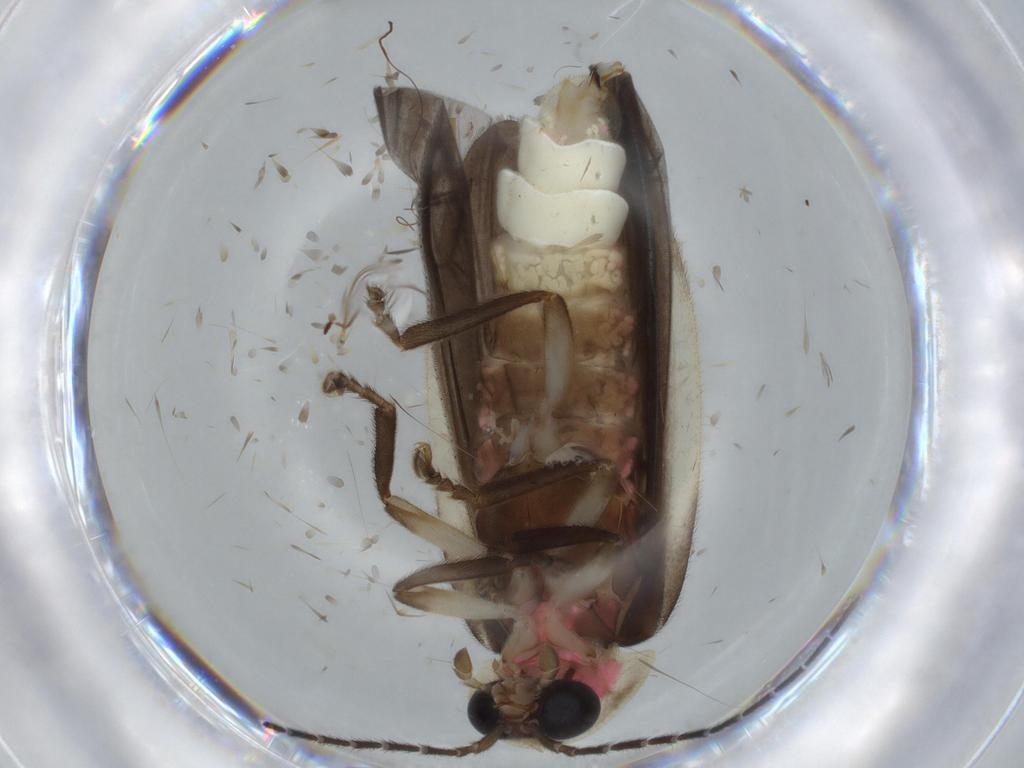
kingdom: Animalia
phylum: Arthropoda
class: Insecta
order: Coleoptera
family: Lampyridae
